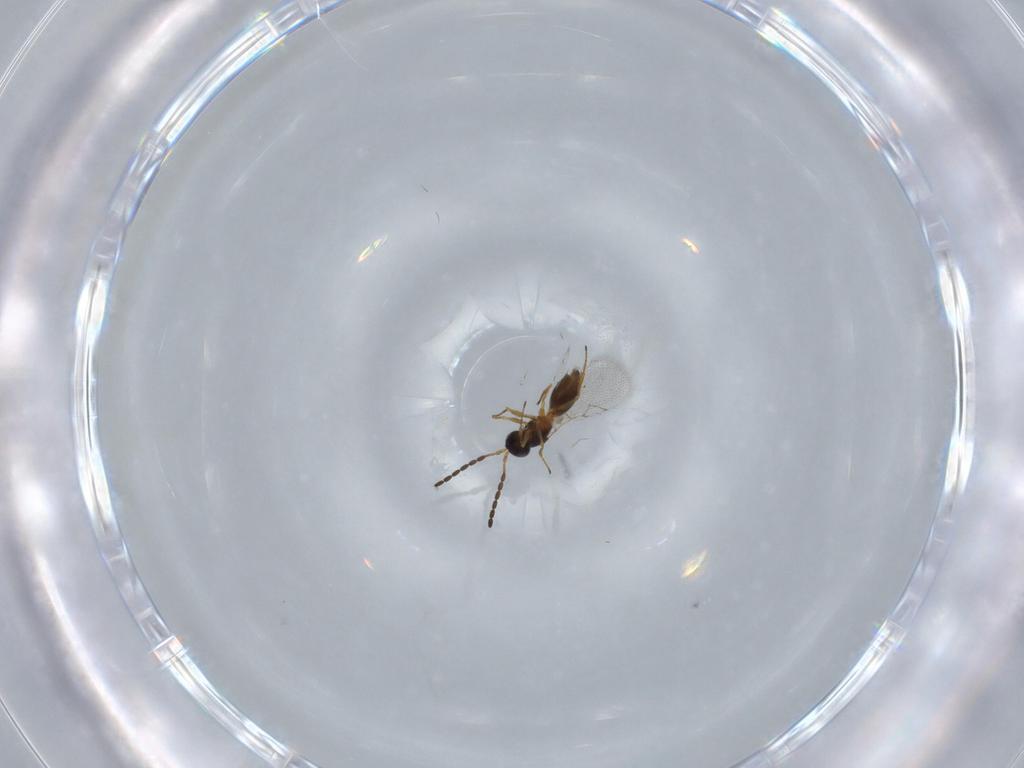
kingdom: Animalia
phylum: Arthropoda
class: Insecta
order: Hymenoptera
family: Figitidae
